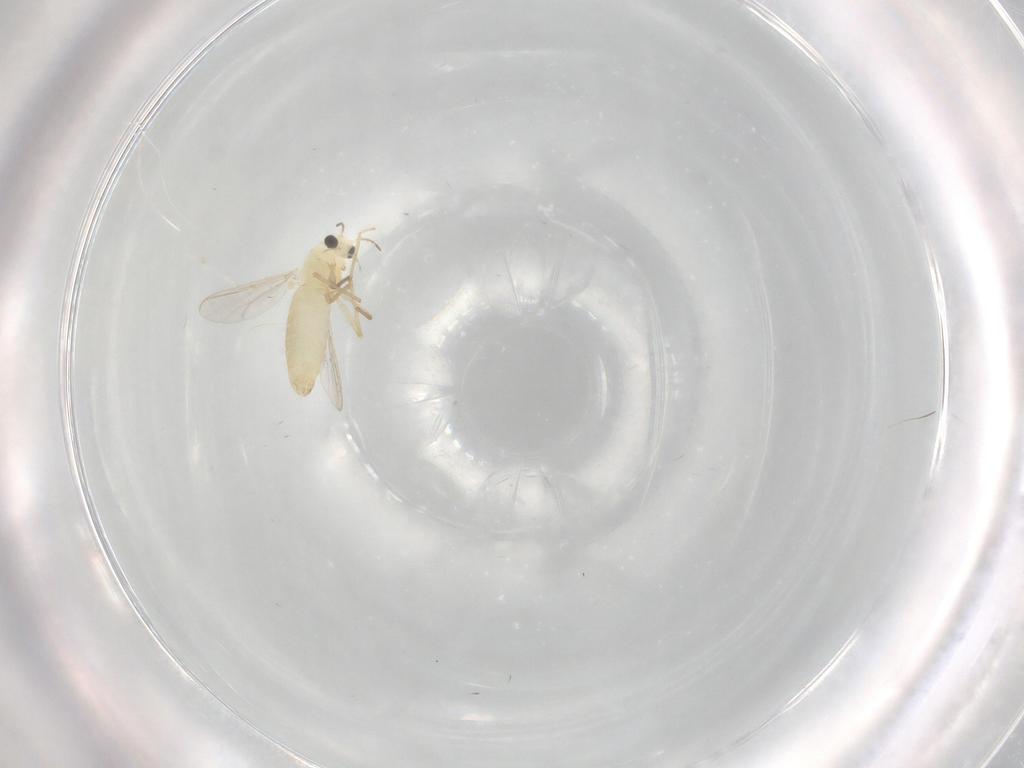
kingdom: Animalia
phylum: Arthropoda
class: Insecta
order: Diptera
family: Chironomidae
